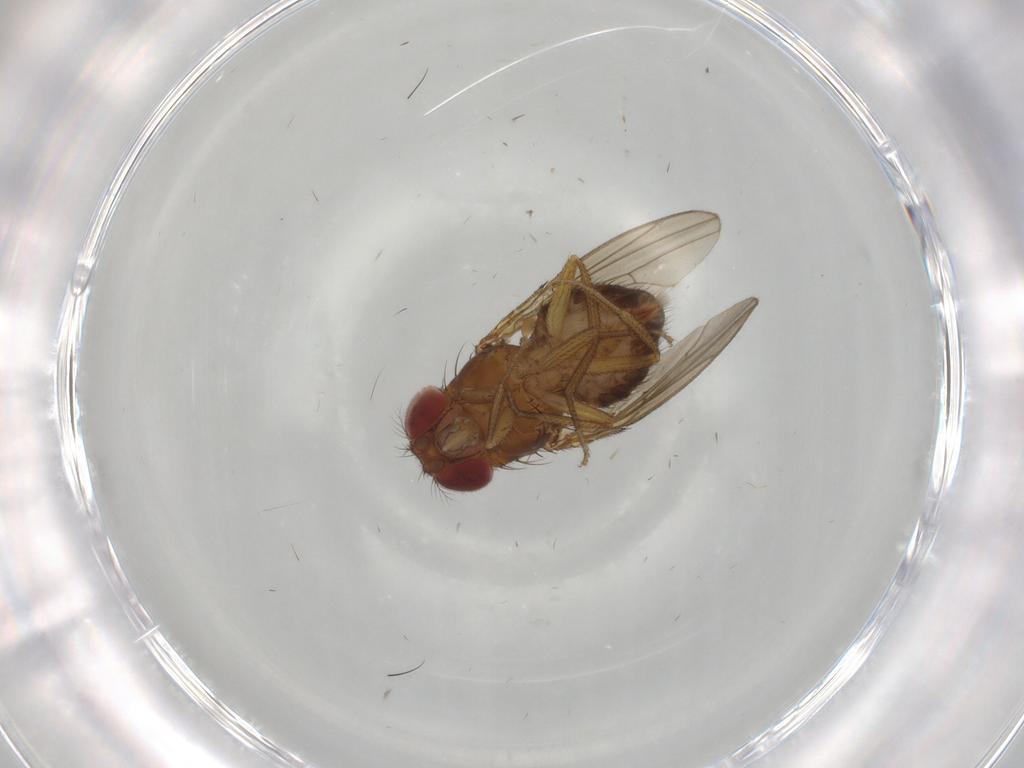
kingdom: Animalia
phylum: Arthropoda
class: Insecta
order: Diptera
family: Drosophilidae
